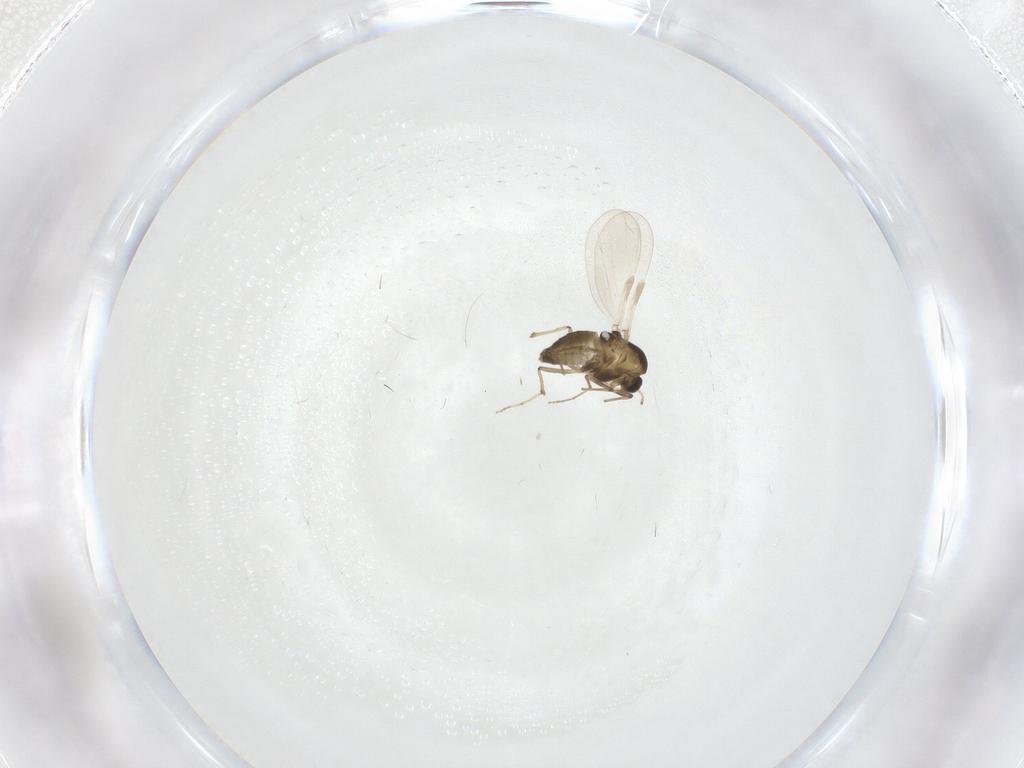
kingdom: Animalia
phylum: Arthropoda
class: Insecta
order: Diptera
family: Chironomidae
